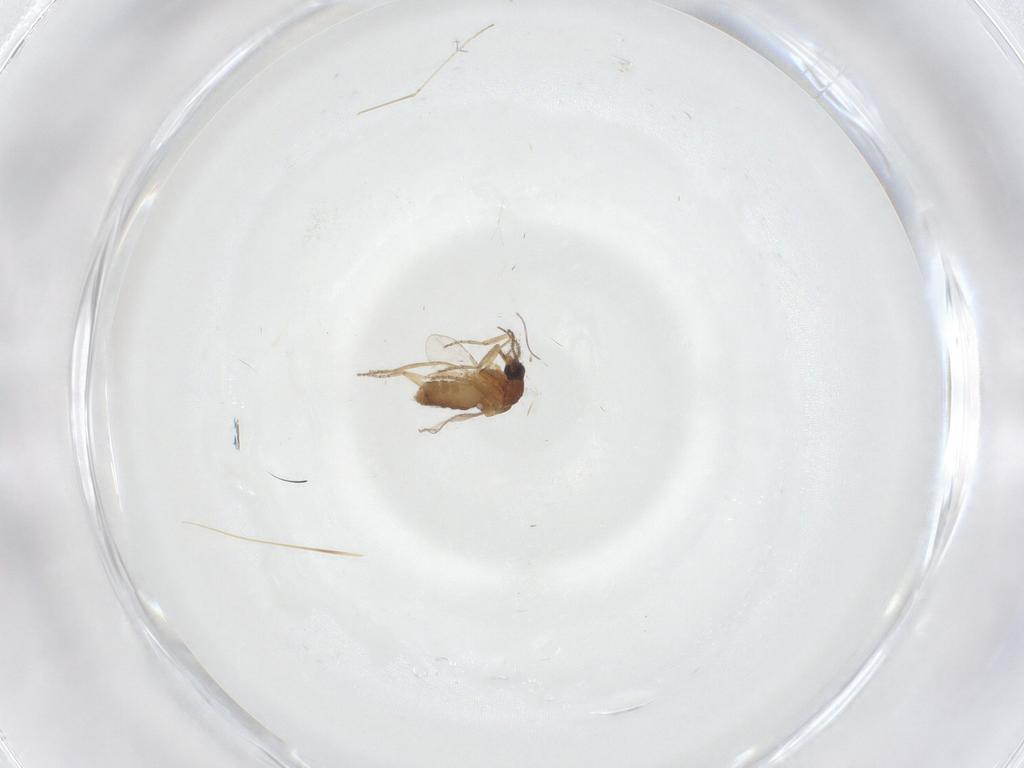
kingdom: Animalia
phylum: Arthropoda
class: Insecta
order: Diptera
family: Ceratopogonidae
